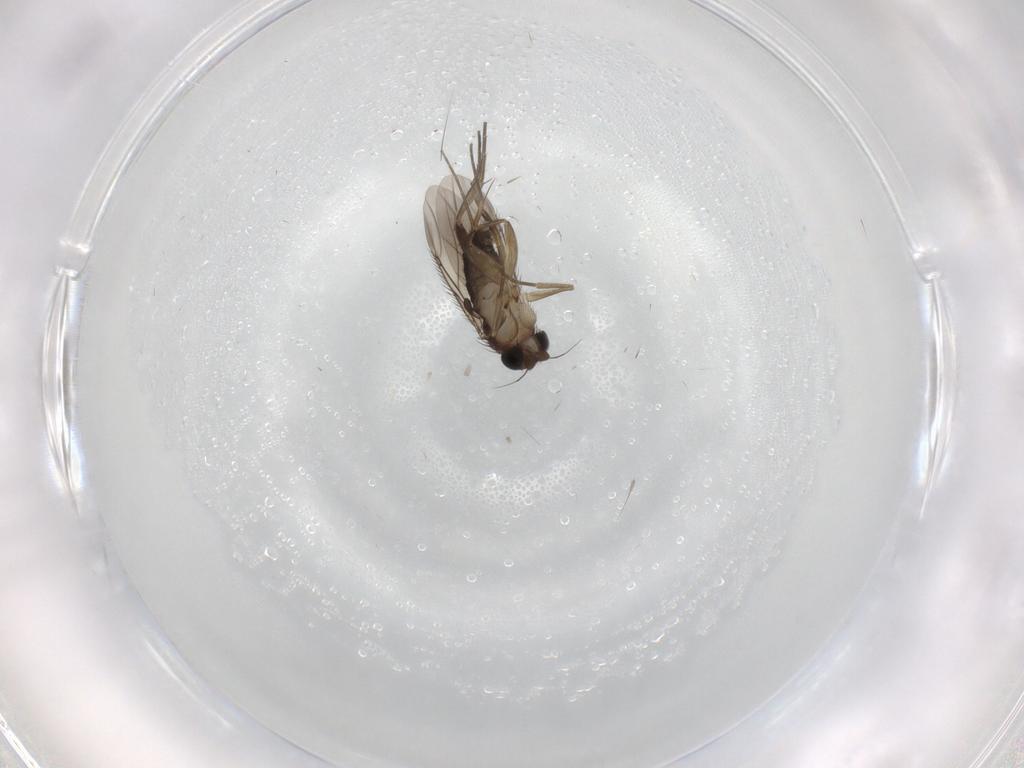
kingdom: Animalia
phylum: Arthropoda
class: Insecta
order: Diptera
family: Phoridae
